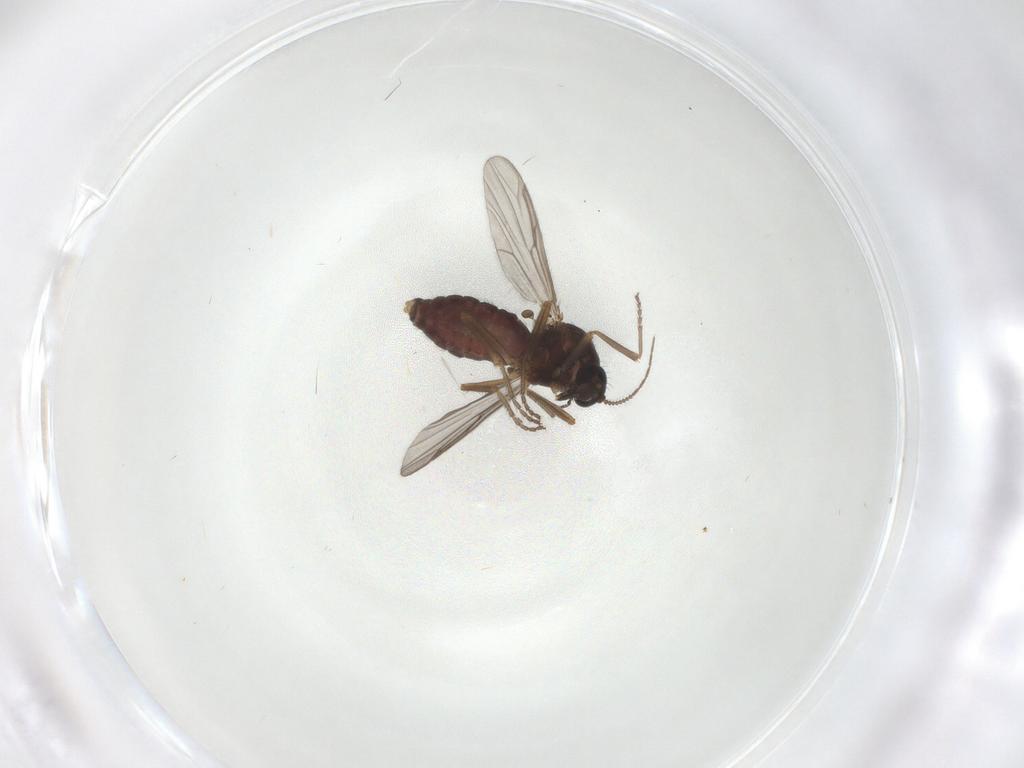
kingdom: Animalia
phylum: Arthropoda
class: Insecta
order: Diptera
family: Ceratopogonidae
